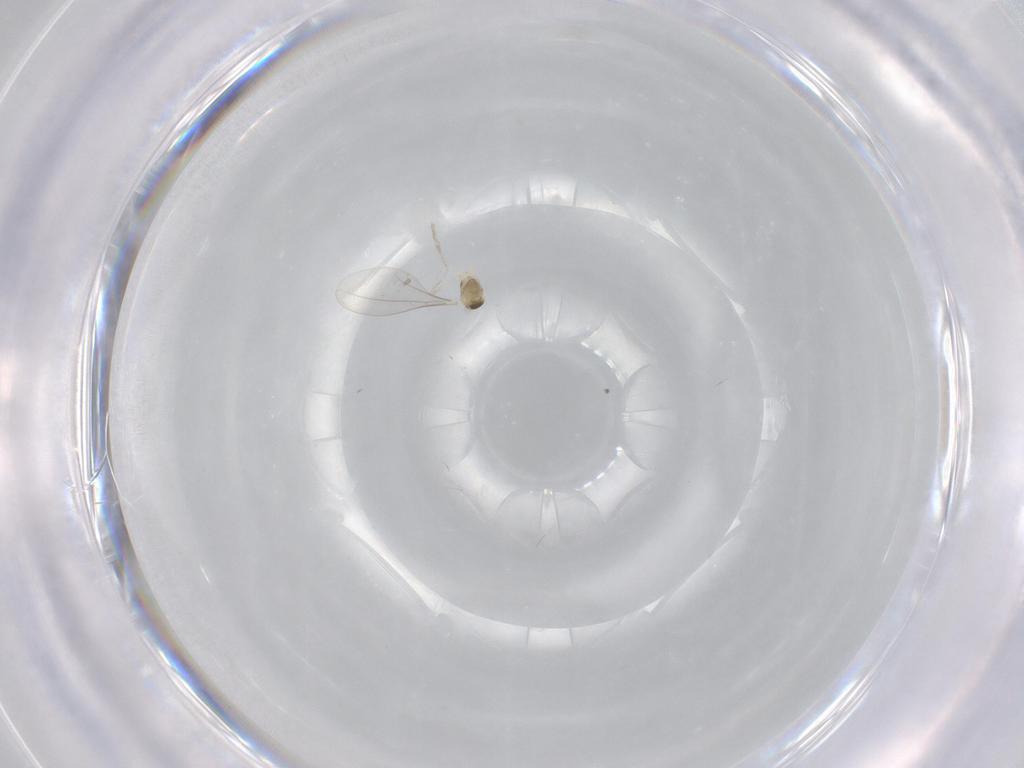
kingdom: Animalia
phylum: Arthropoda
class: Insecta
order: Diptera
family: Cecidomyiidae
